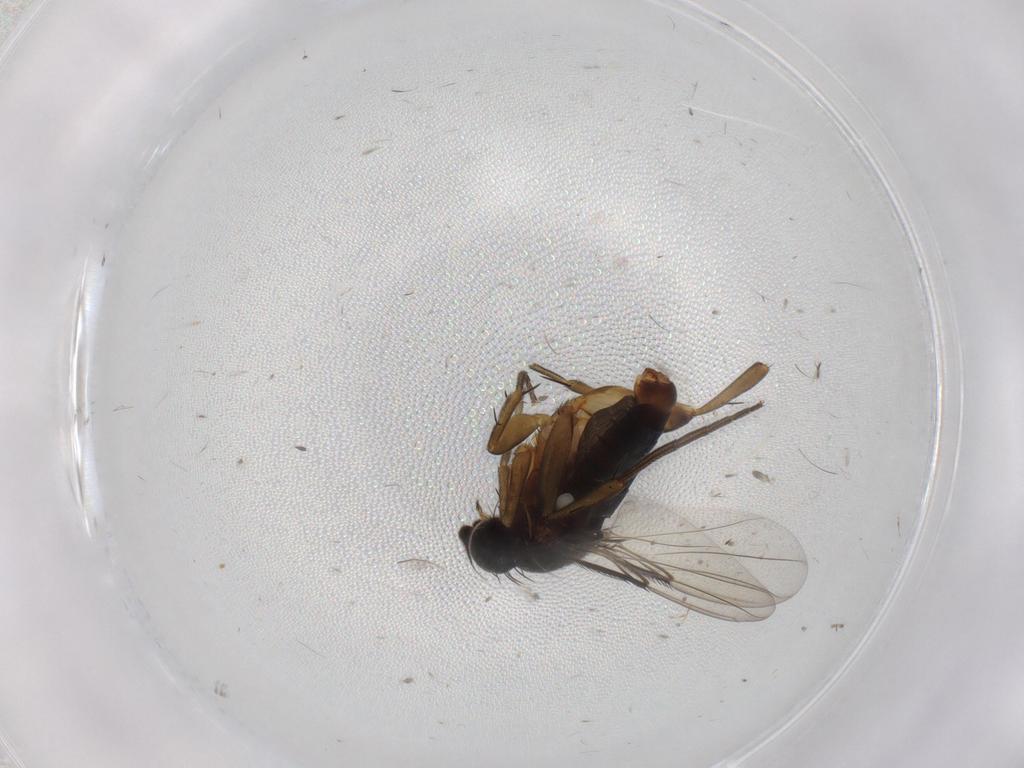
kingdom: Animalia
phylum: Arthropoda
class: Insecta
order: Diptera
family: Phoridae
